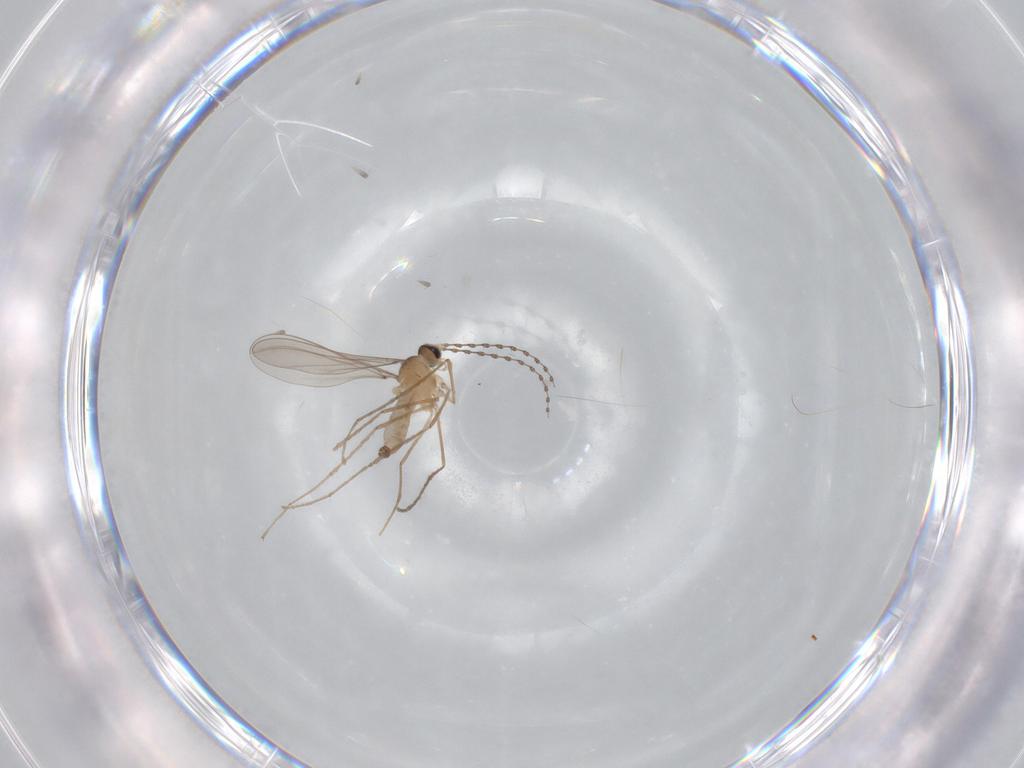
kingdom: Animalia
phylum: Arthropoda
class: Insecta
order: Diptera
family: Cecidomyiidae
